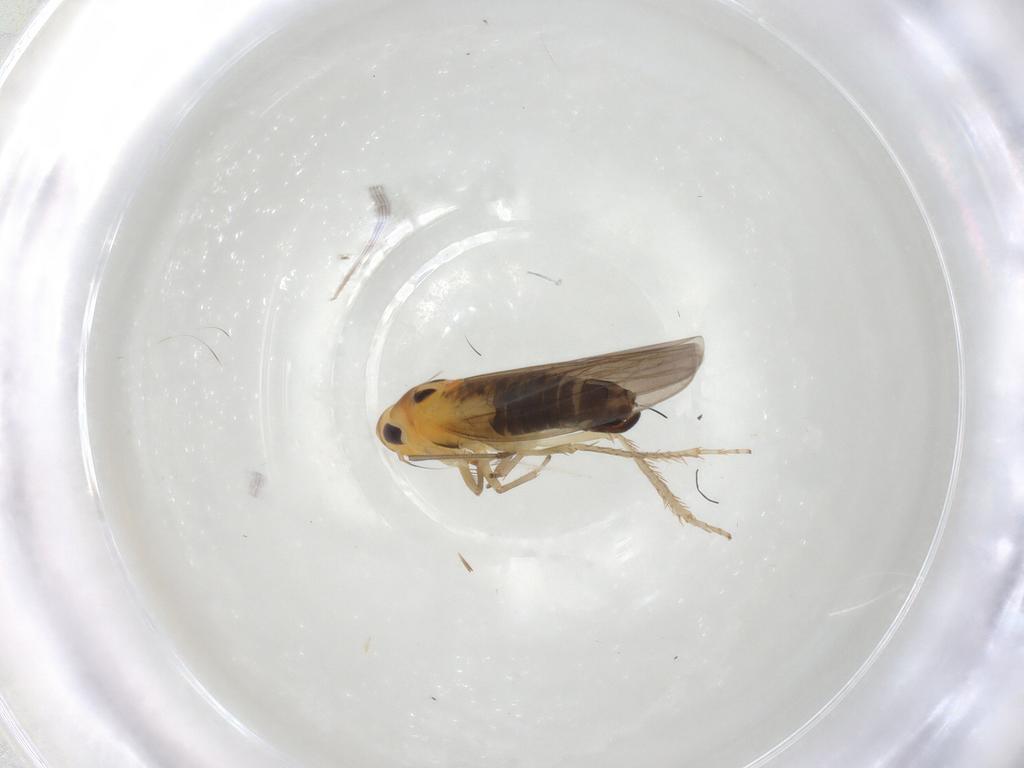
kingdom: Animalia
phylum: Arthropoda
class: Insecta
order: Hemiptera
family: Cicadellidae
